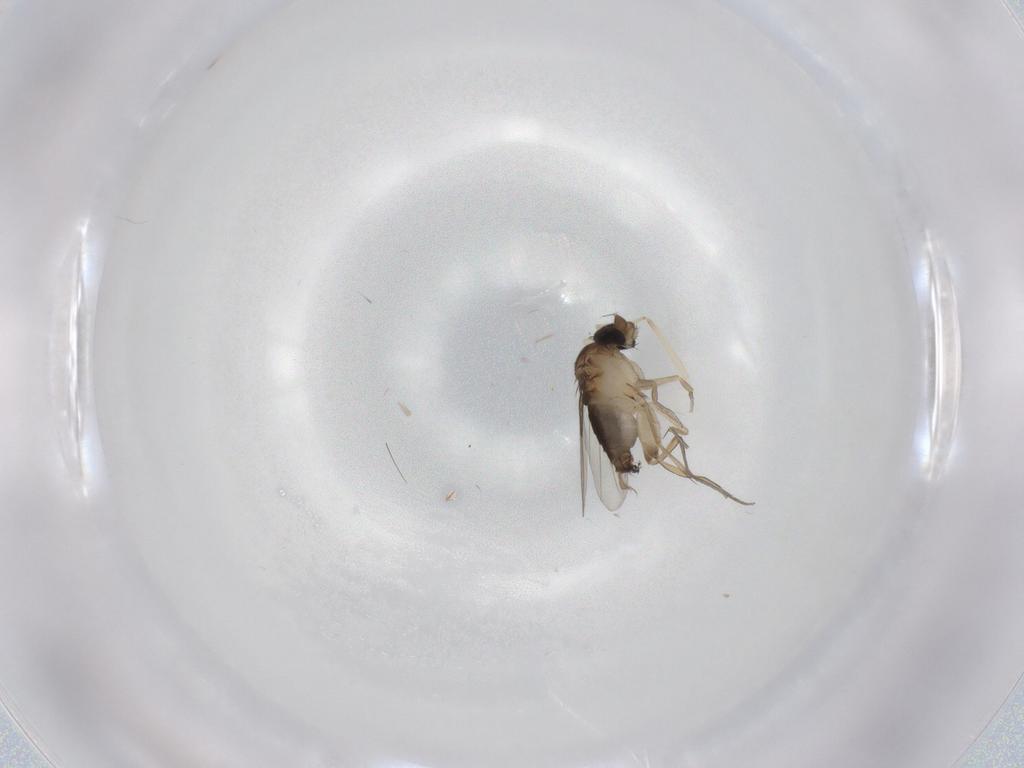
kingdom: Animalia
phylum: Arthropoda
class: Insecta
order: Diptera
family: Cecidomyiidae
